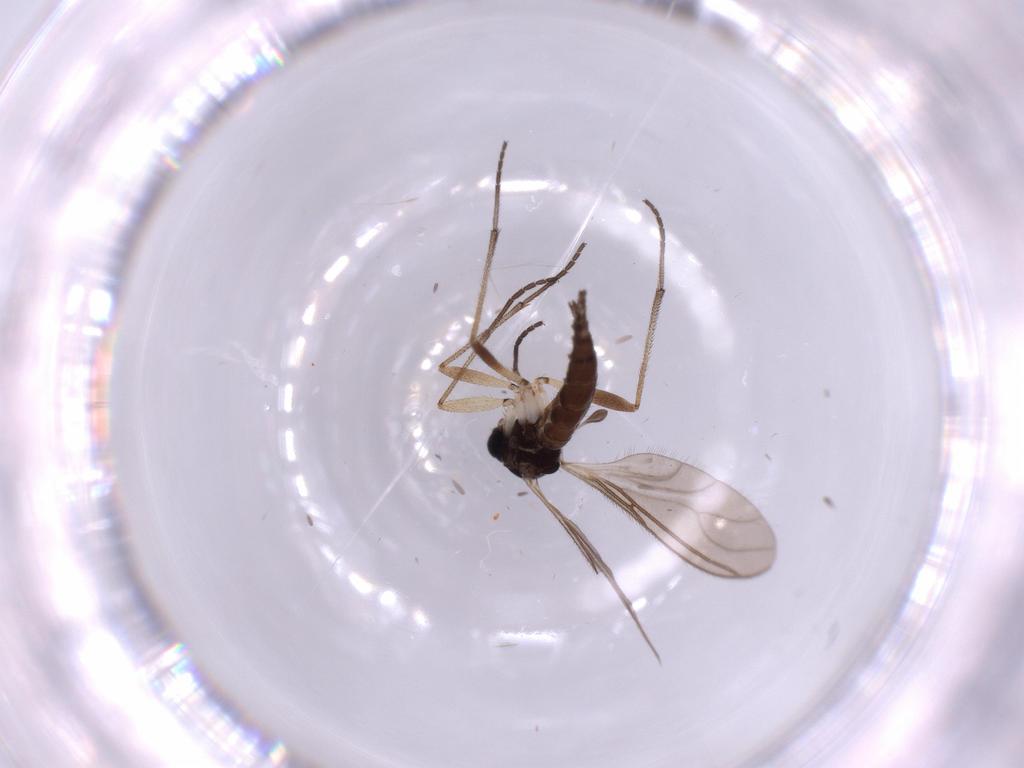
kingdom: Animalia
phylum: Arthropoda
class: Insecta
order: Diptera
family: Sciaridae
